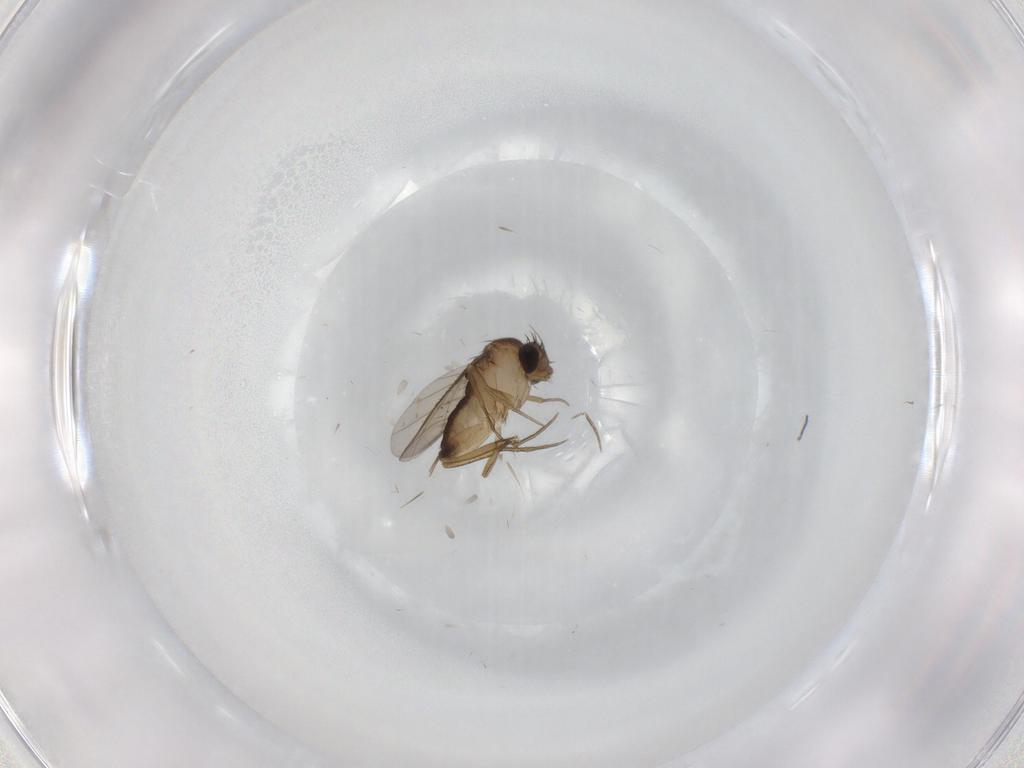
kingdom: Animalia
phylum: Arthropoda
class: Insecta
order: Diptera
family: Phoridae
